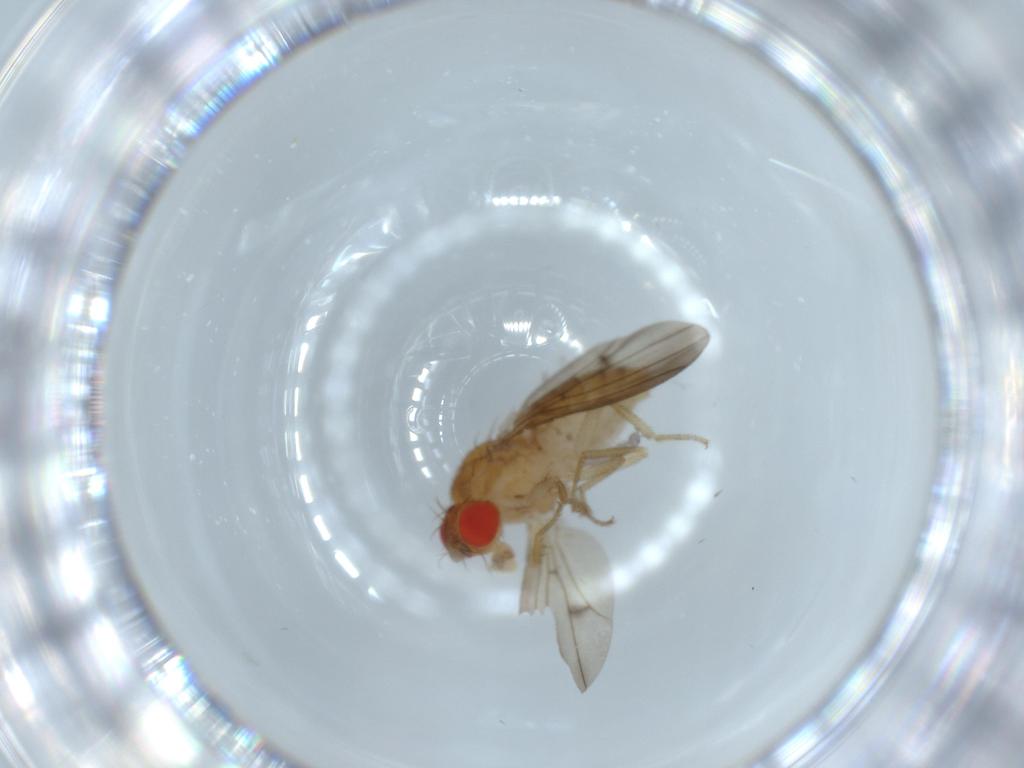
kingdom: Animalia
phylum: Arthropoda
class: Insecta
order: Diptera
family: Drosophilidae
